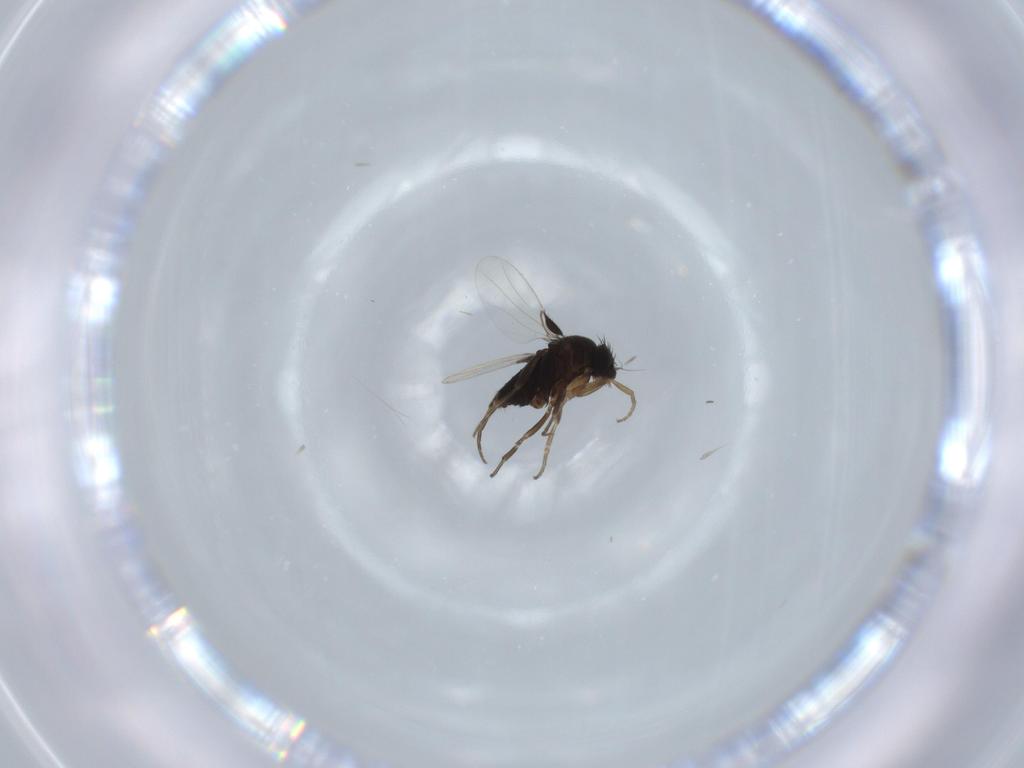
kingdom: Animalia
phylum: Arthropoda
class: Insecta
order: Diptera
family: Phoridae
